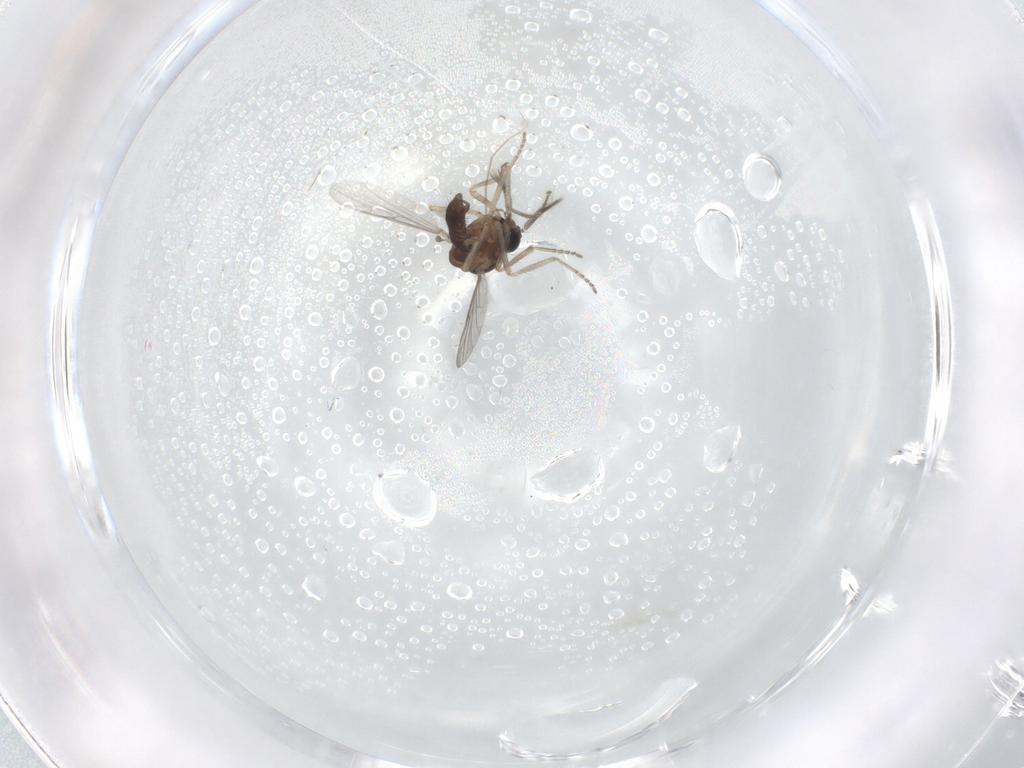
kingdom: Animalia
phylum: Arthropoda
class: Insecta
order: Diptera
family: Ceratopogonidae
